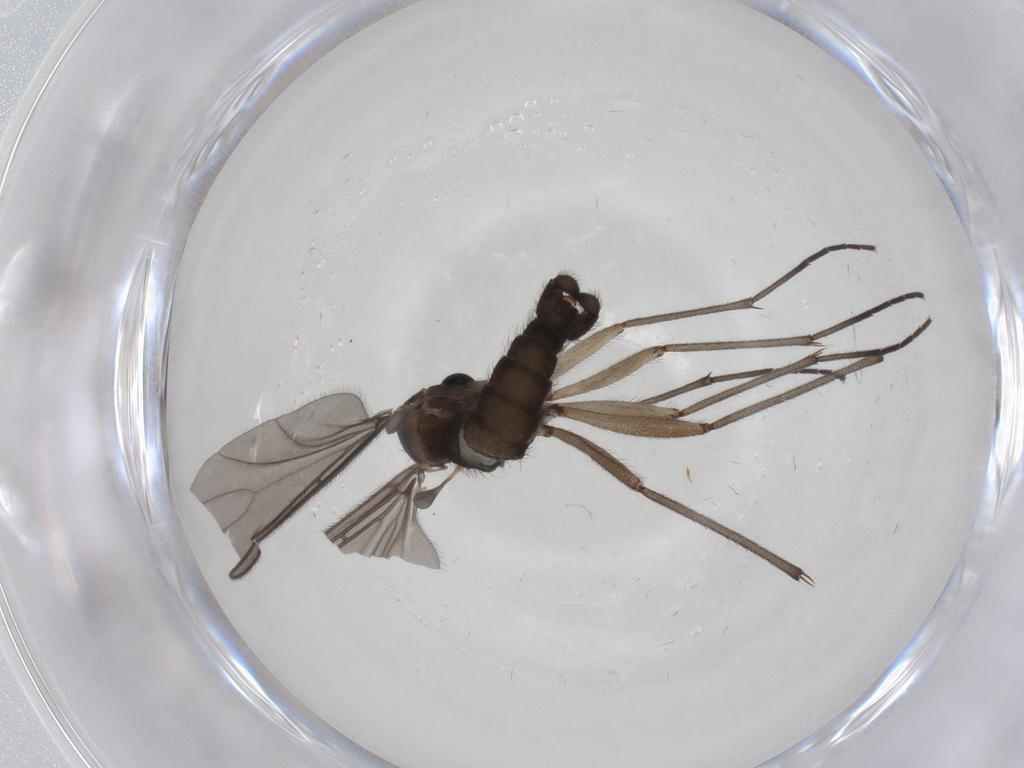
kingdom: Animalia
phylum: Arthropoda
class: Insecta
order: Diptera
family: Sciaridae
